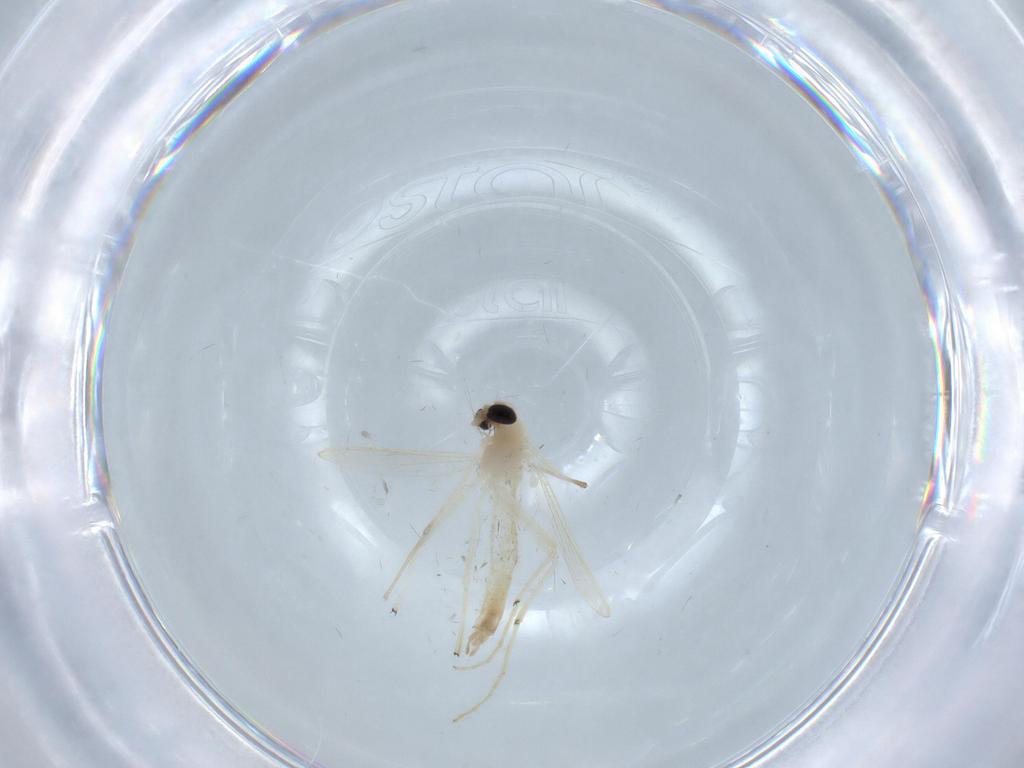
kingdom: Animalia
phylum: Arthropoda
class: Insecta
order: Diptera
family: Chironomidae
